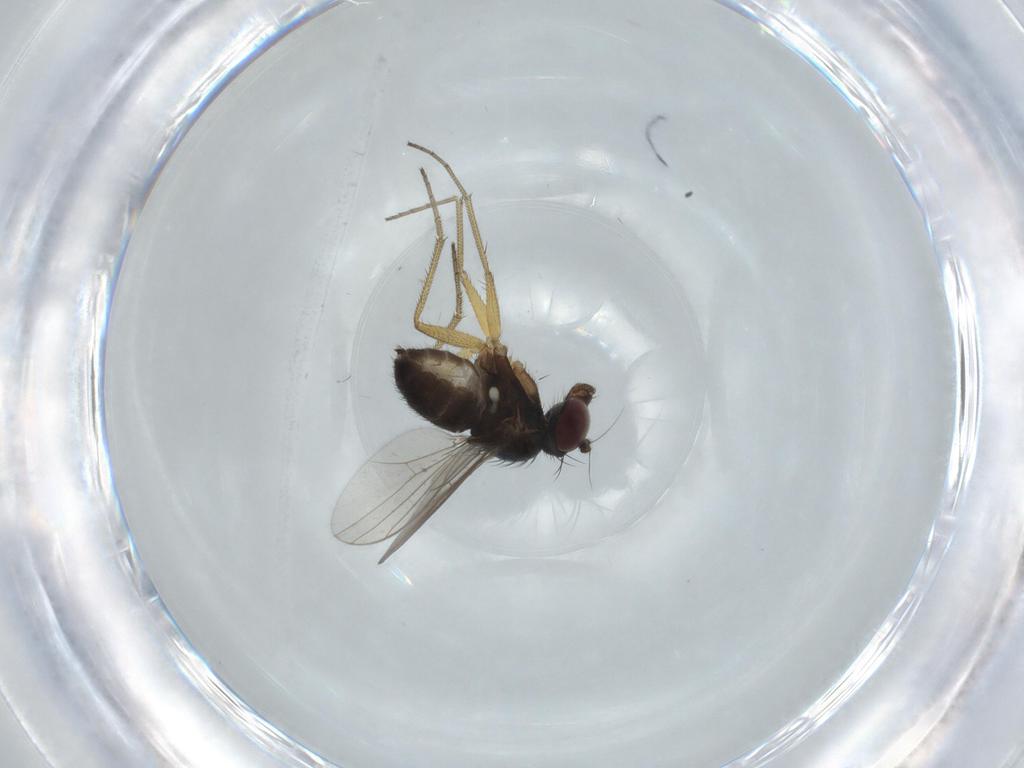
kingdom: Animalia
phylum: Arthropoda
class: Insecta
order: Diptera
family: Dolichopodidae
